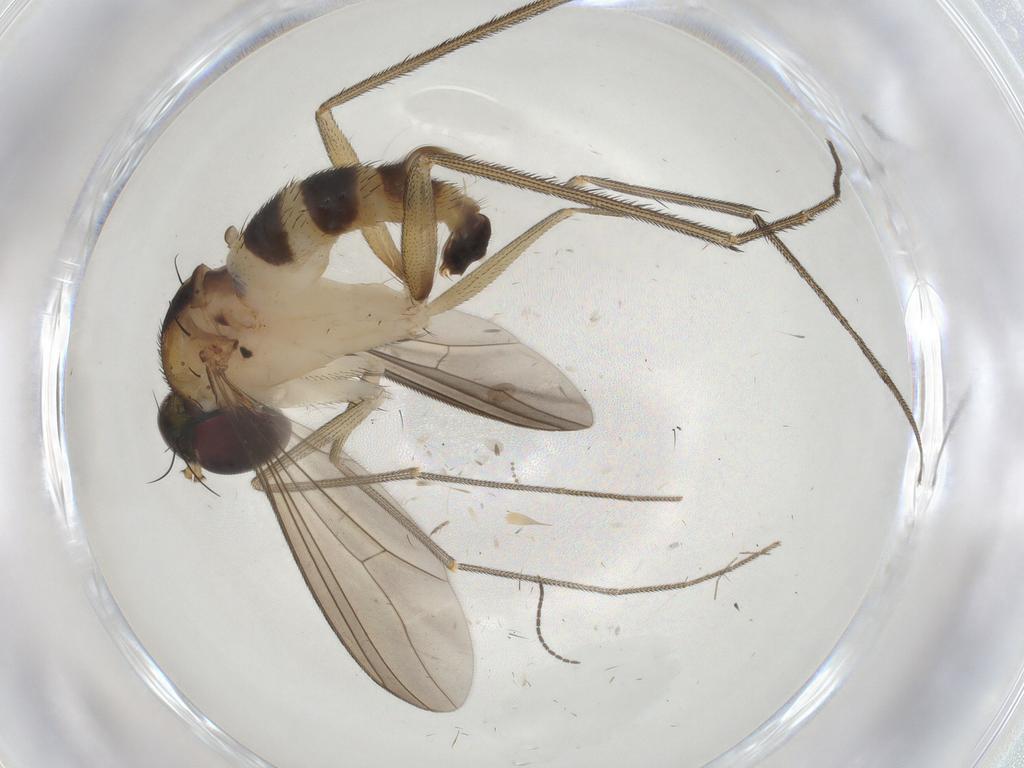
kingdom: Animalia
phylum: Arthropoda
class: Insecta
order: Diptera
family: Dolichopodidae
